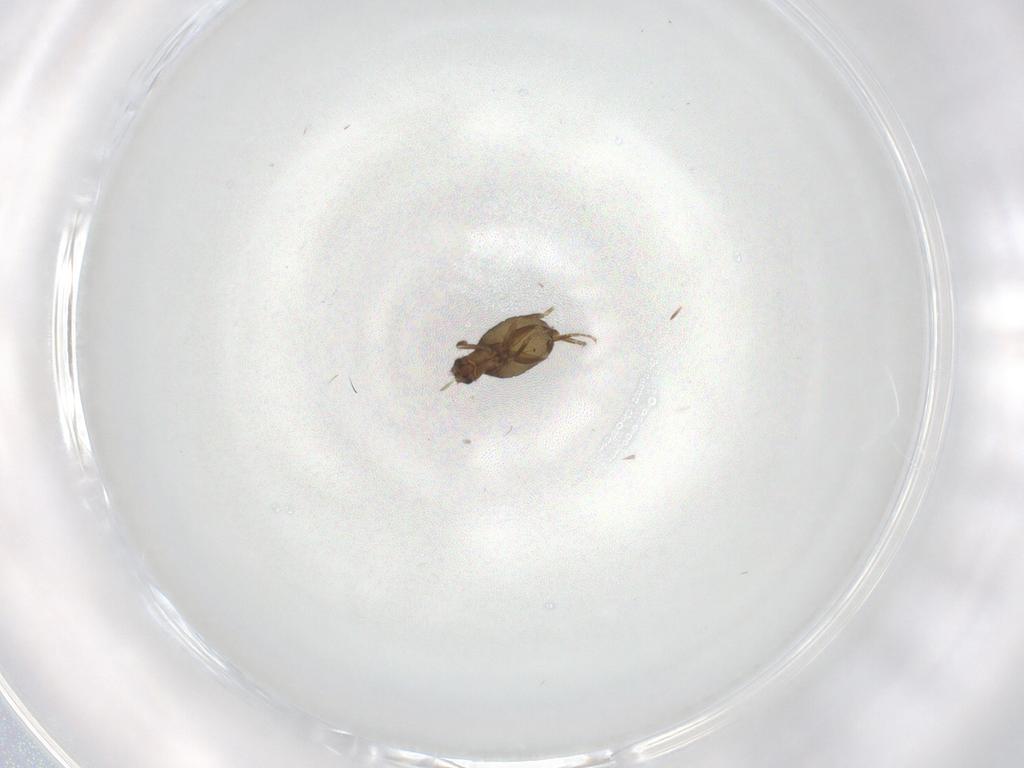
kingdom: Animalia
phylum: Arthropoda
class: Insecta
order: Diptera
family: Phoridae
